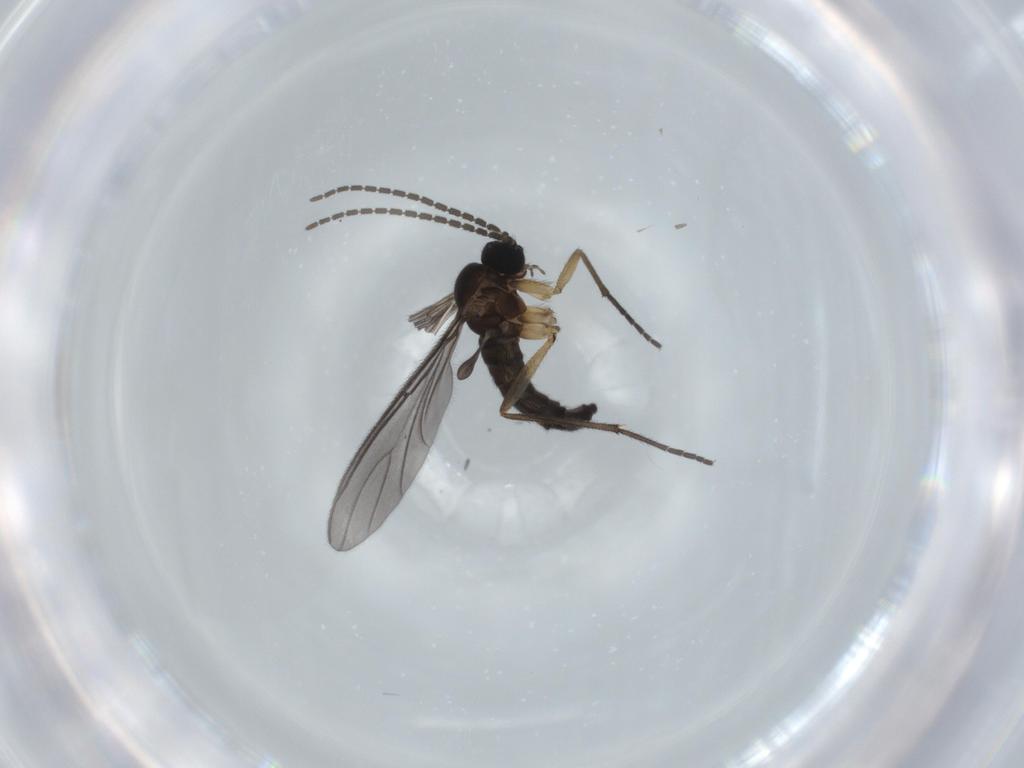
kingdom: Animalia
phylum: Arthropoda
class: Insecta
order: Diptera
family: Sciaridae
